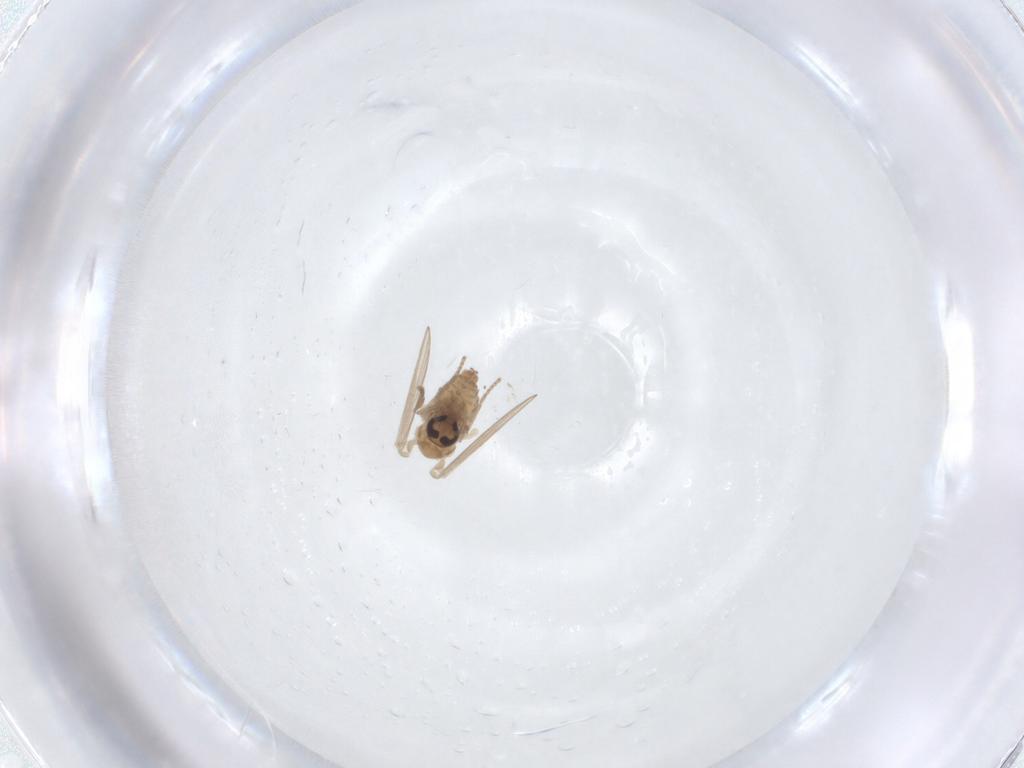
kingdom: Animalia
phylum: Arthropoda
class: Insecta
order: Diptera
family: Psychodidae
